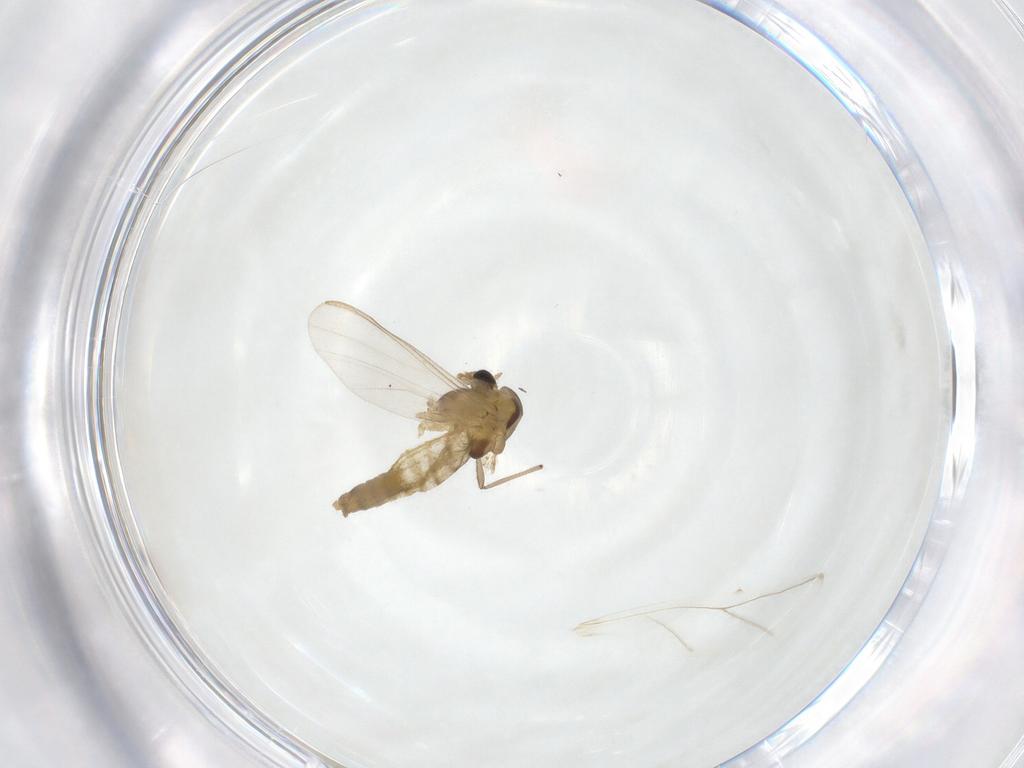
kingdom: Animalia
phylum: Arthropoda
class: Insecta
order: Diptera
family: Chironomidae
